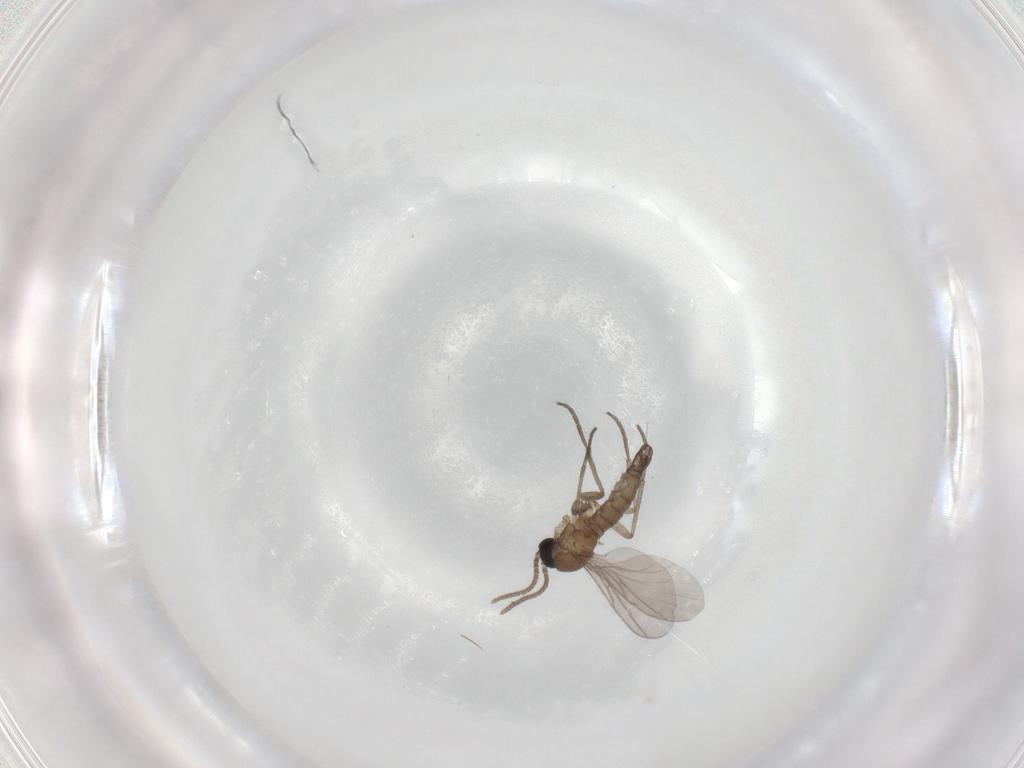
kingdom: Animalia
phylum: Arthropoda
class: Insecta
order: Diptera
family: Sciaridae
